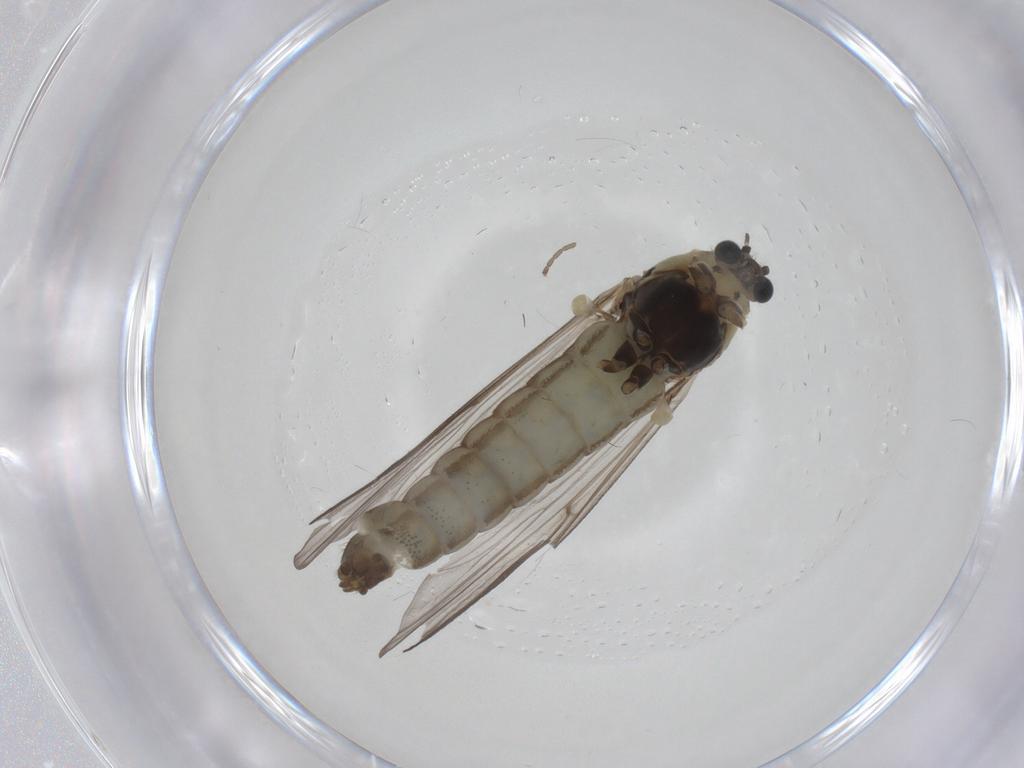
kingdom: Animalia
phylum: Arthropoda
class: Insecta
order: Diptera
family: Chironomidae
